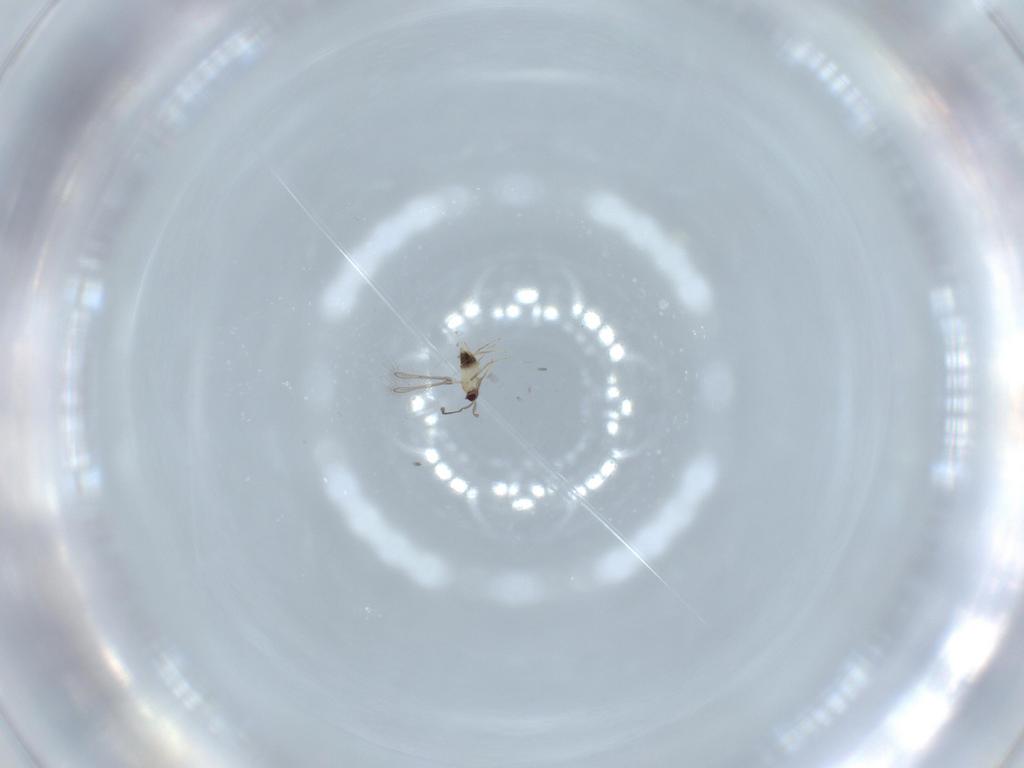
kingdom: Animalia
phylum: Arthropoda
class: Insecta
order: Hymenoptera
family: Mymaridae
